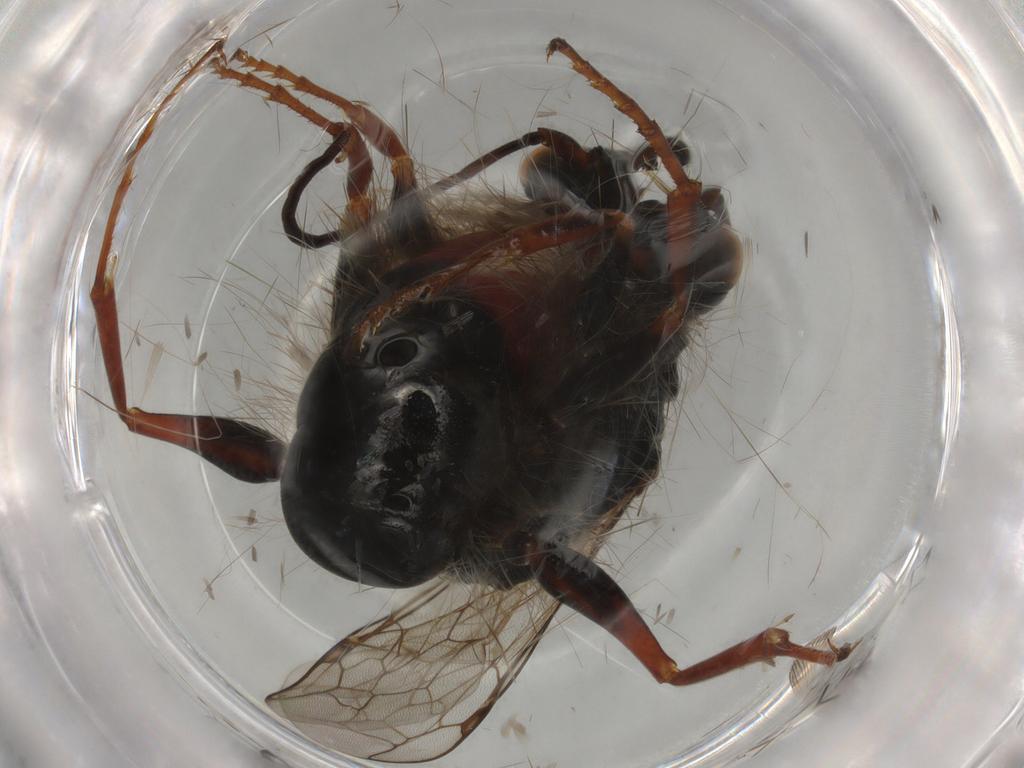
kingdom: Animalia
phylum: Arthropoda
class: Insecta
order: Hymenoptera
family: Ampulicidae
